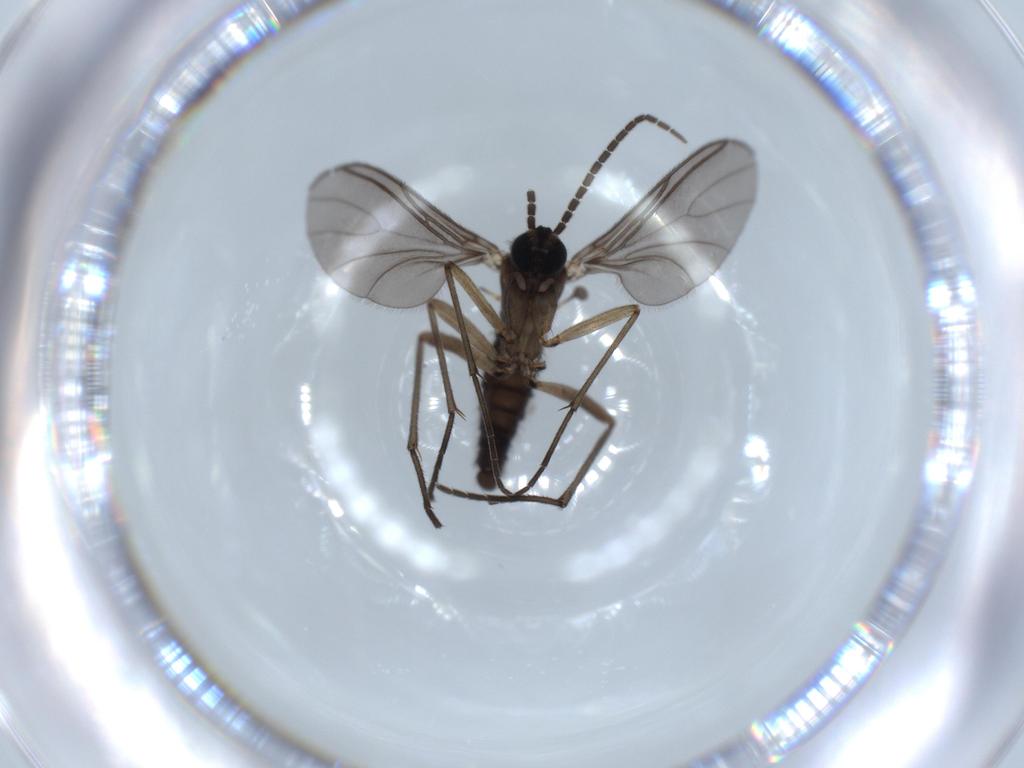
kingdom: Animalia
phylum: Arthropoda
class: Insecta
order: Diptera
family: Sciaridae
